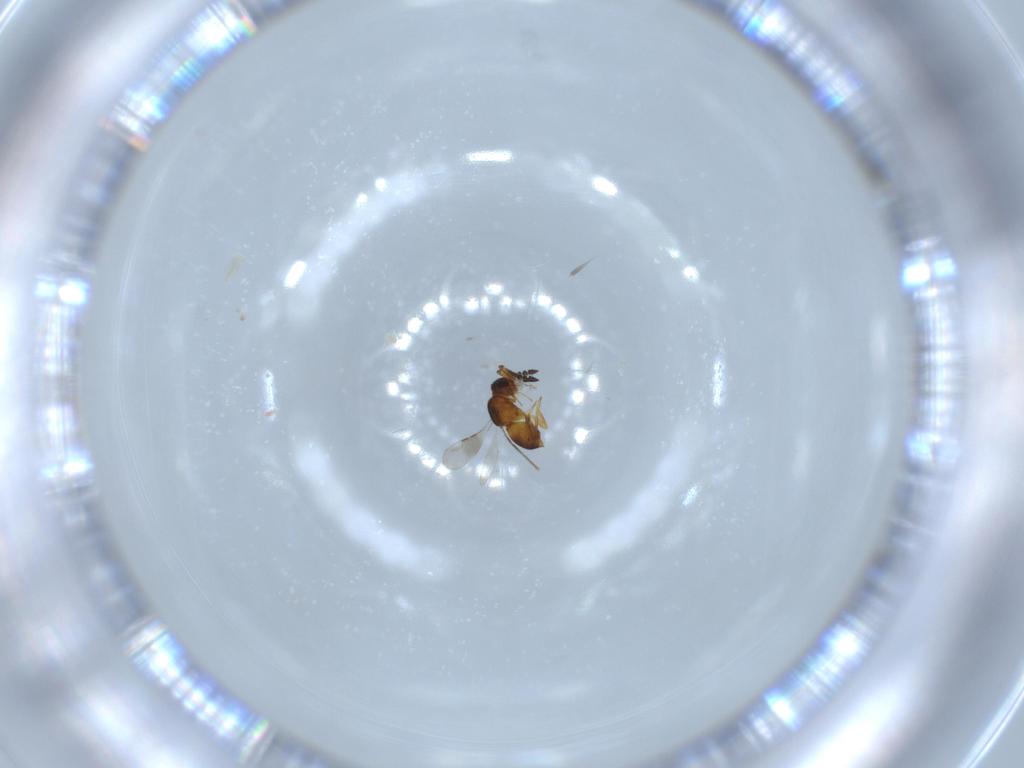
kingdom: Animalia
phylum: Arthropoda
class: Insecta
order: Hymenoptera
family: Ceraphronidae
